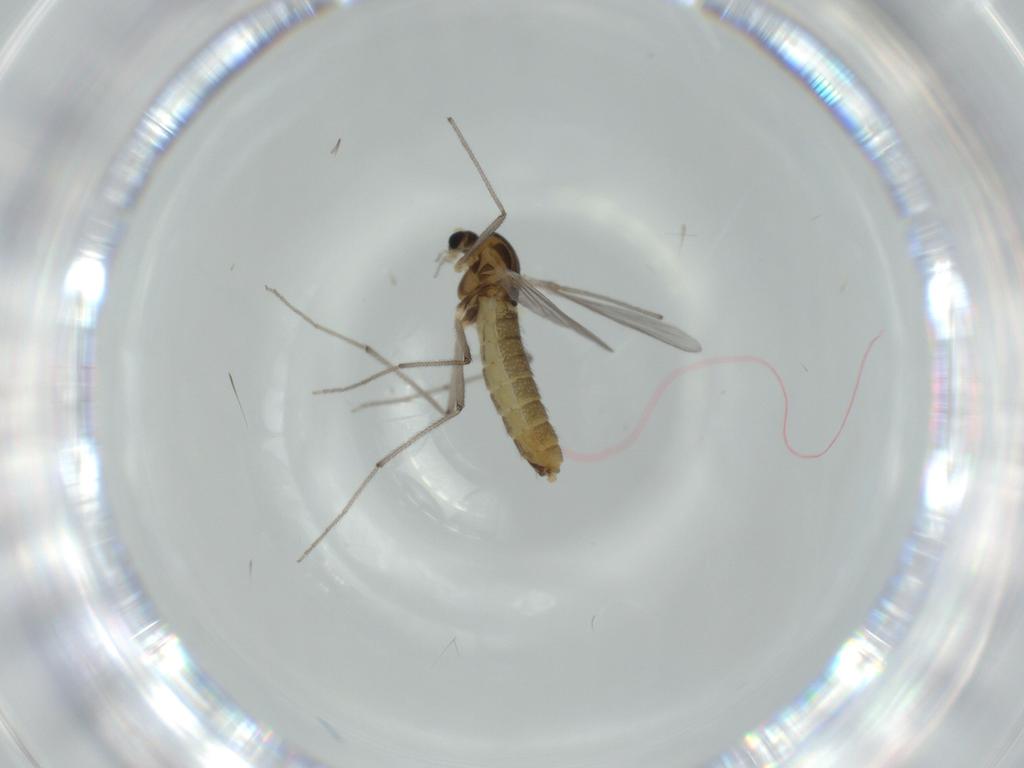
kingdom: Animalia
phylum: Arthropoda
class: Insecta
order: Diptera
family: Chironomidae
